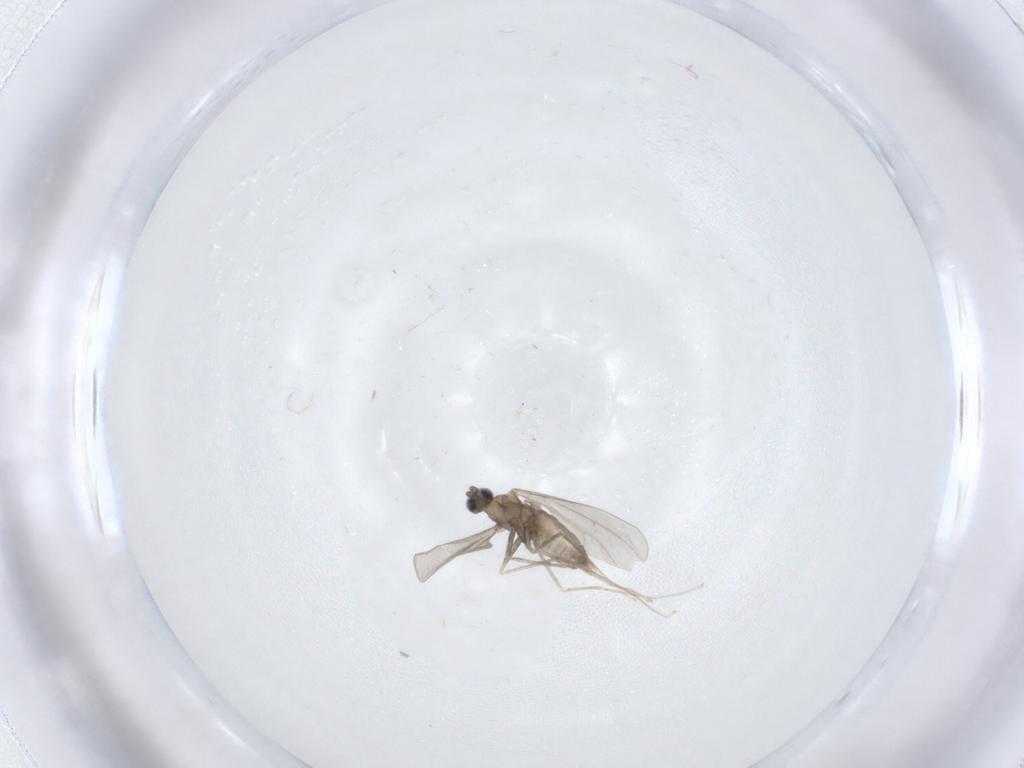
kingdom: Animalia
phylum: Arthropoda
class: Insecta
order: Diptera
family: Cecidomyiidae
